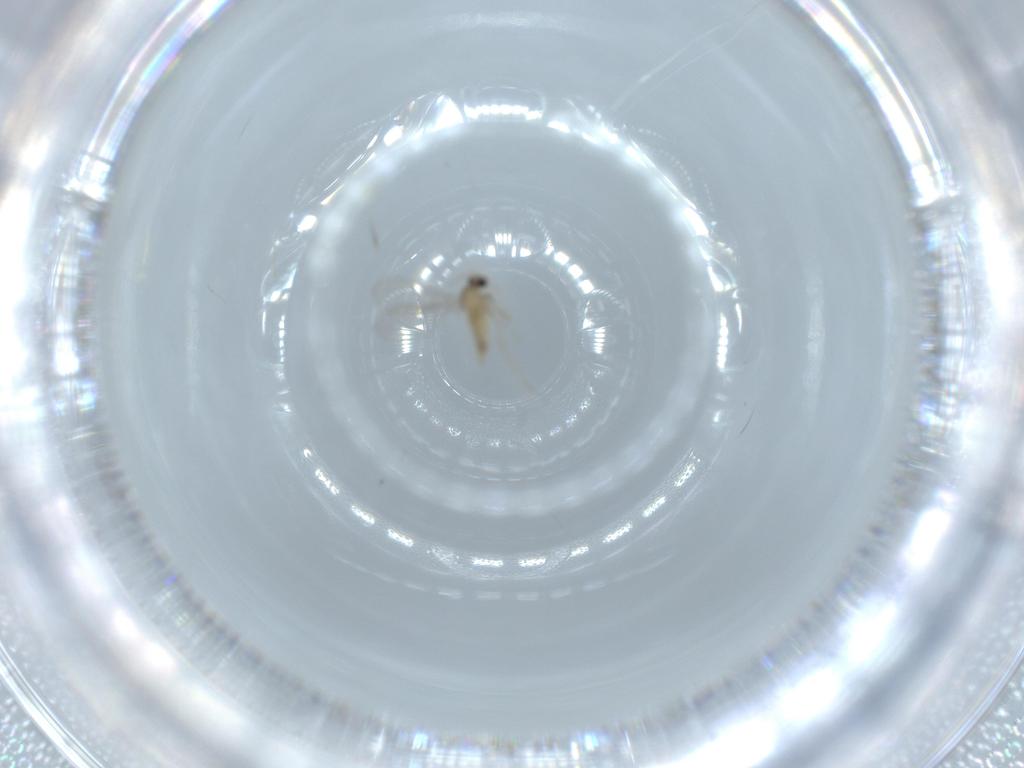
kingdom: Animalia
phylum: Arthropoda
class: Insecta
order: Diptera
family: Cecidomyiidae
